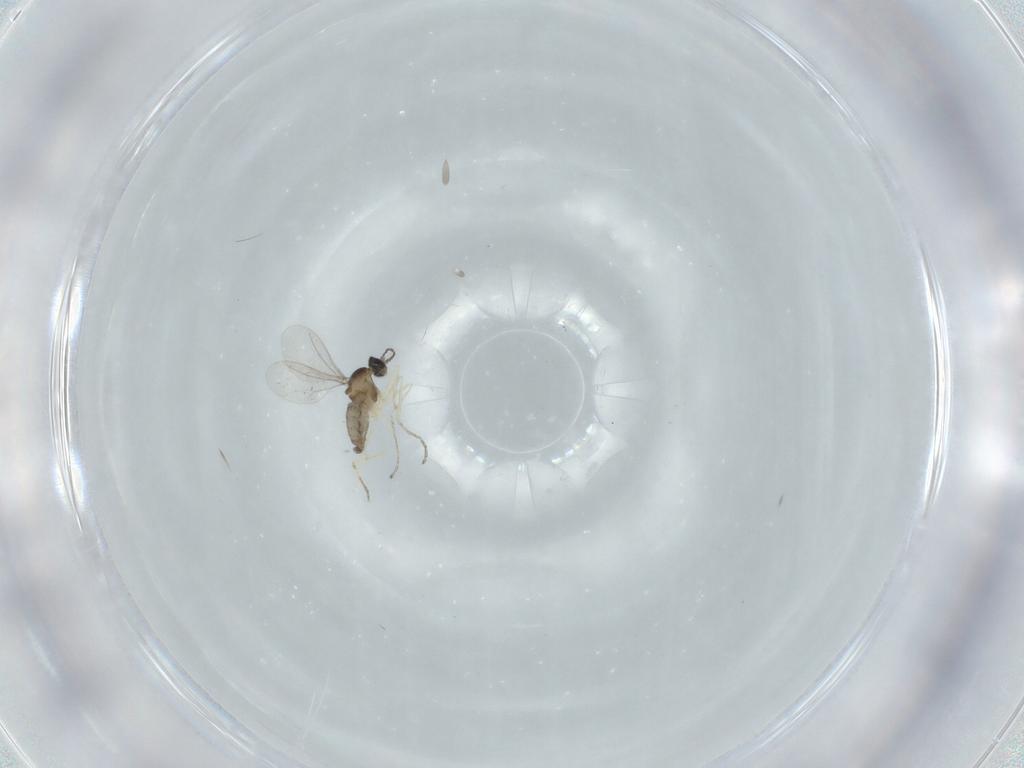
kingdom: Animalia
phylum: Arthropoda
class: Insecta
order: Diptera
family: Cecidomyiidae
